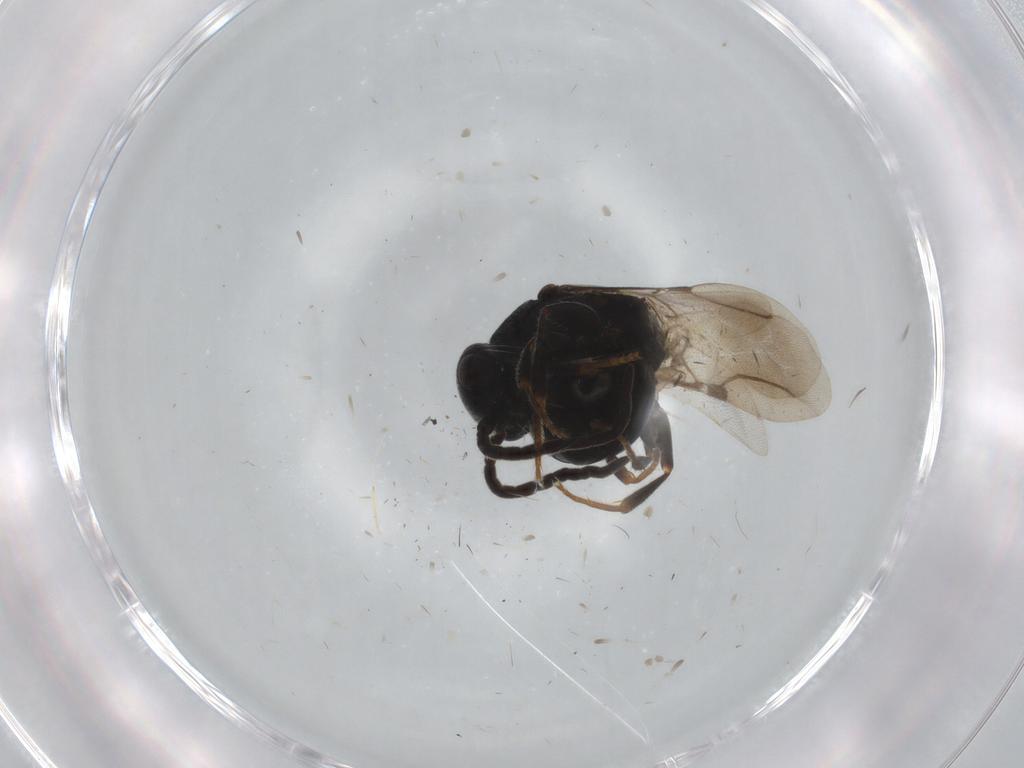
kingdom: Animalia
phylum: Arthropoda
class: Insecta
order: Hymenoptera
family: Bethylidae
